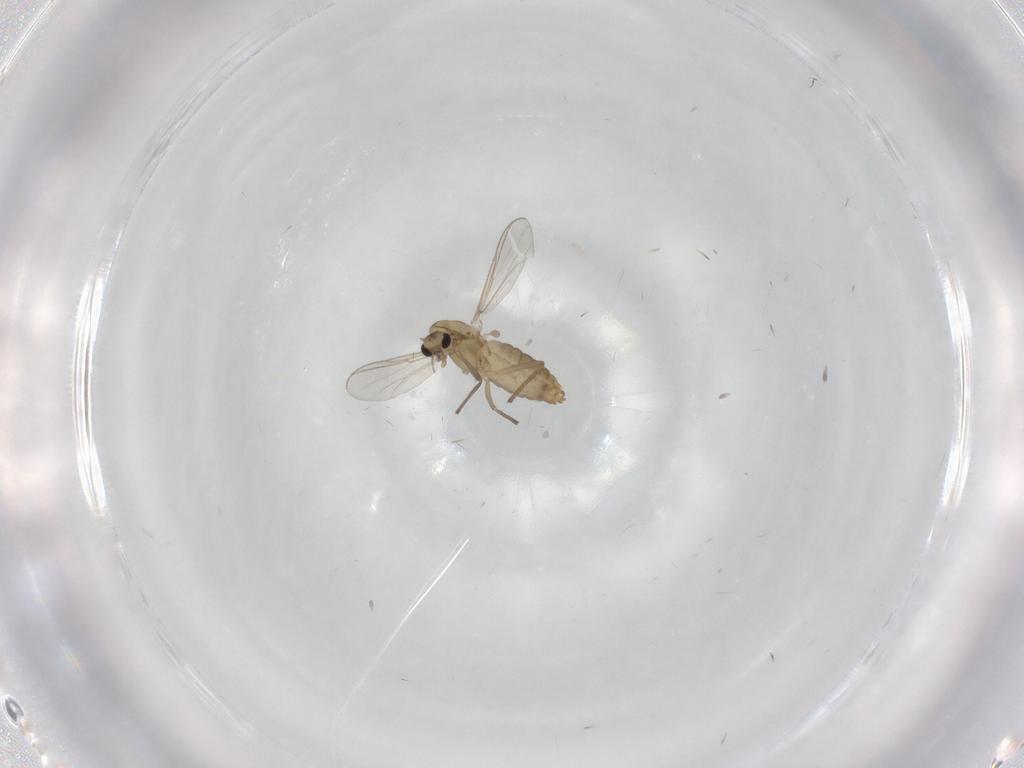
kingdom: Animalia
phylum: Arthropoda
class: Insecta
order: Diptera
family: Chironomidae
